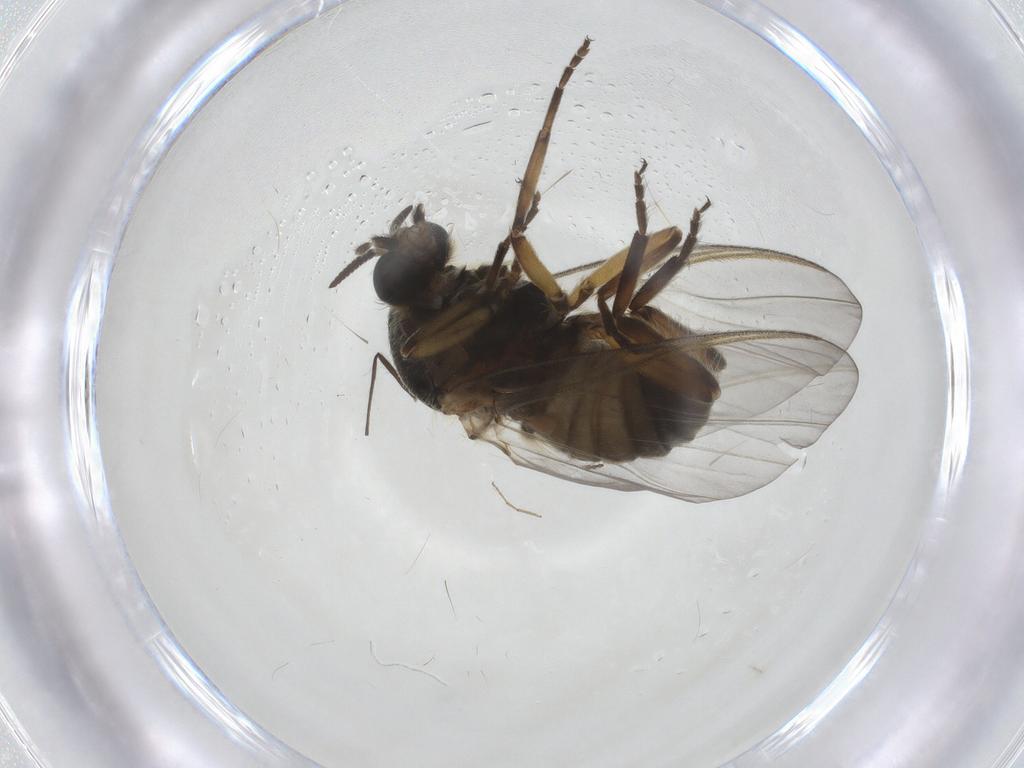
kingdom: Animalia
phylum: Arthropoda
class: Insecta
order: Diptera
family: Simuliidae
